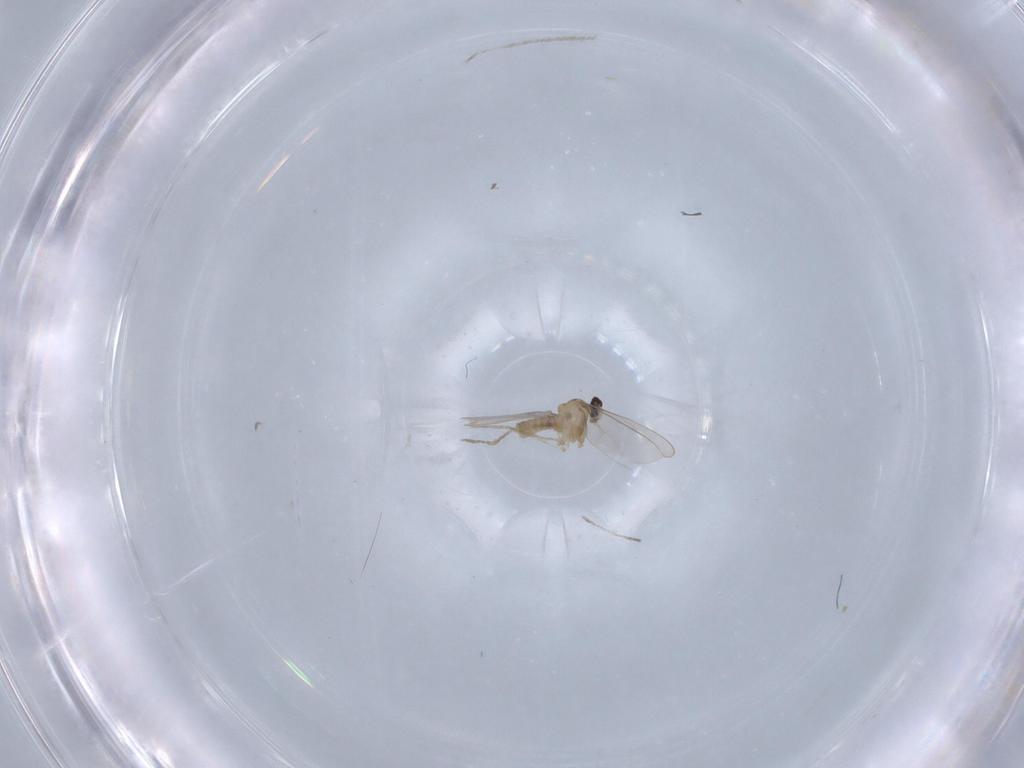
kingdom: Animalia
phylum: Arthropoda
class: Insecta
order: Diptera
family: Cecidomyiidae
